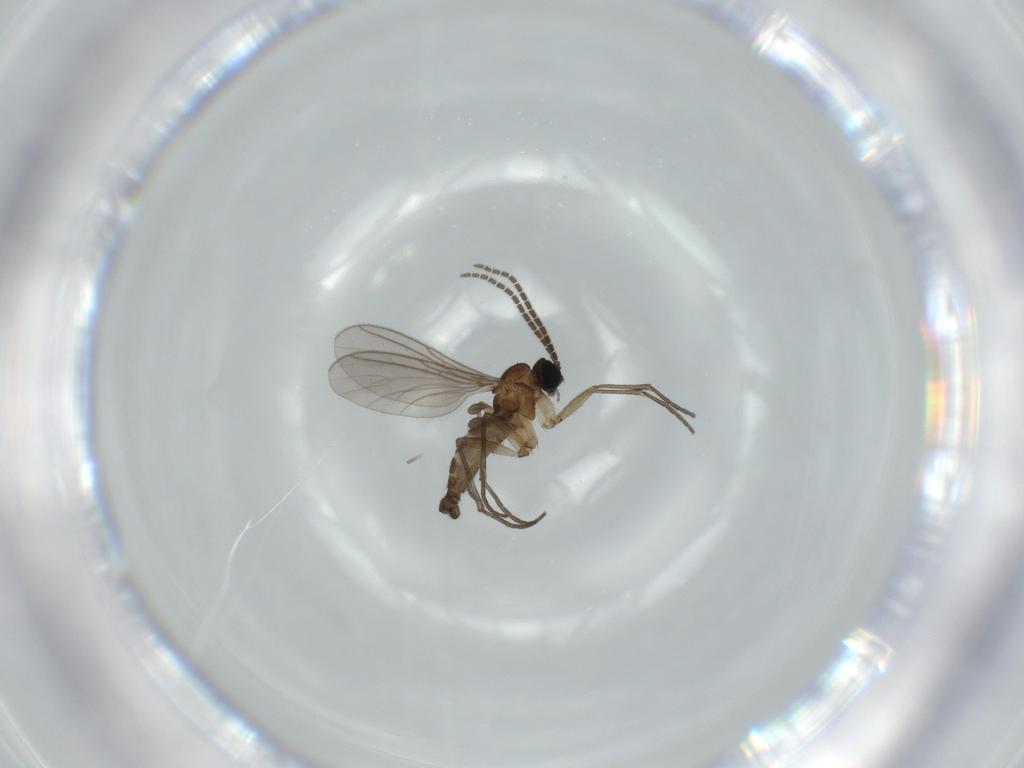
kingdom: Animalia
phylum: Arthropoda
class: Insecta
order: Diptera
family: Sciaridae
